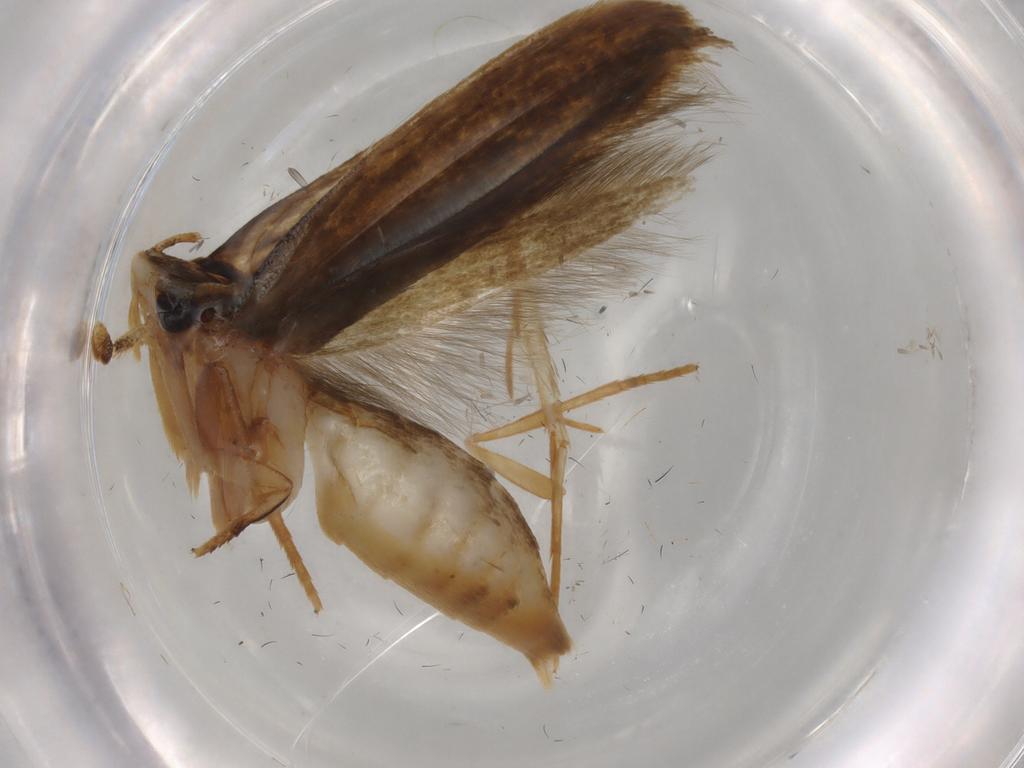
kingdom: Animalia
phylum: Arthropoda
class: Insecta
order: Lepidoptera
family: Tineidae
